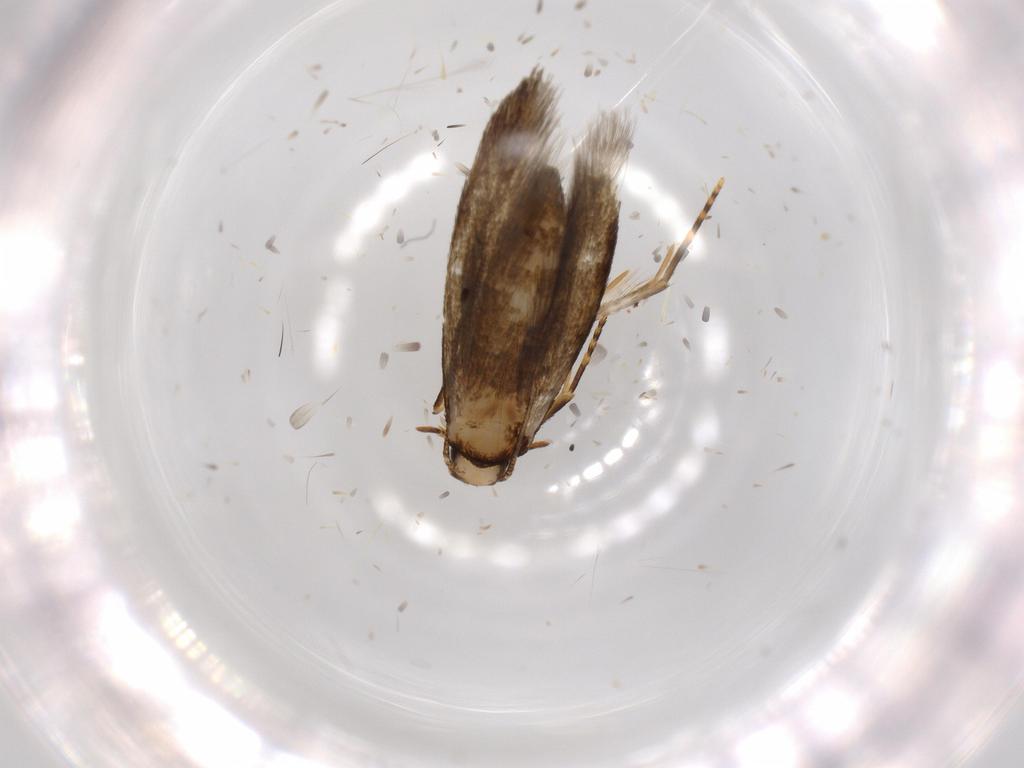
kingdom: Animalia
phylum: Arthropoda
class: Insecta
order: Lepidoptera
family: Tineidae
